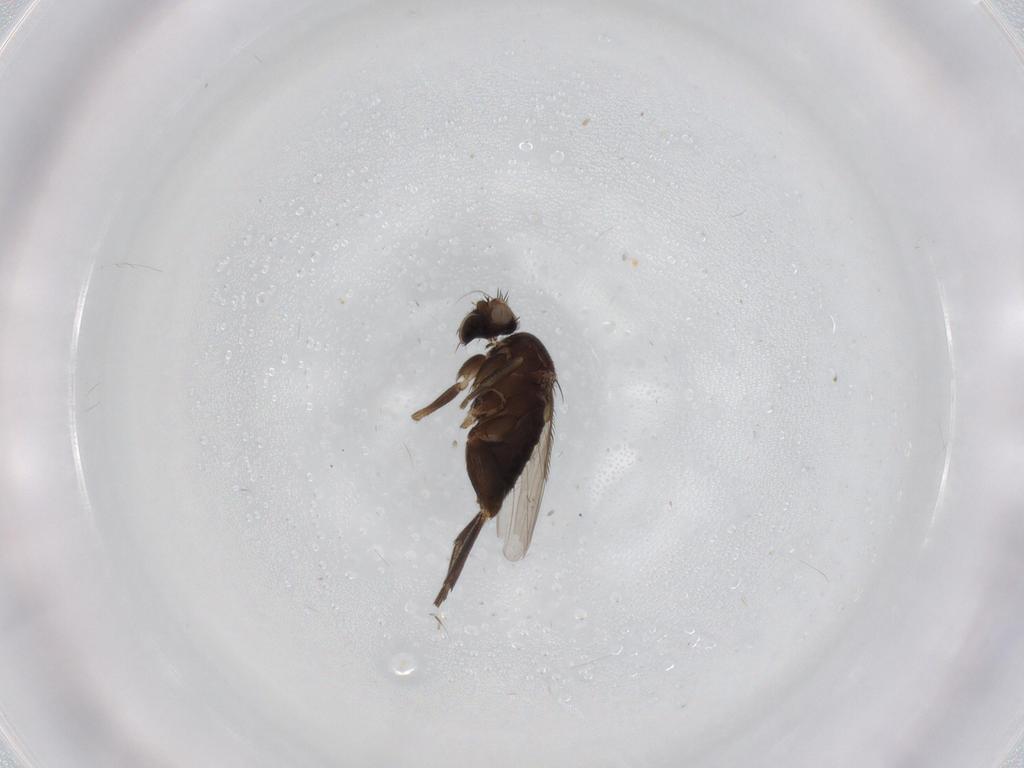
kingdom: Animalia
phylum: Arthropoda
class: Insecta
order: Diptera
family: Phoridae
